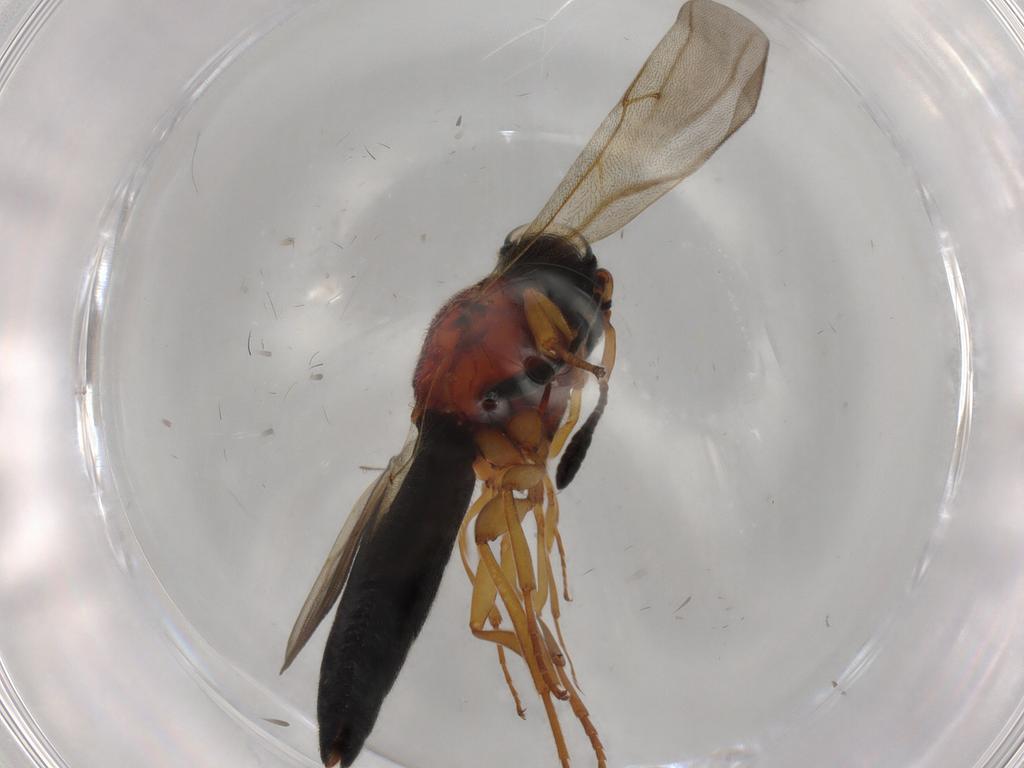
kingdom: Animalia
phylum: Arthropoda
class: Insecta
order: Hymenoptera
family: Formicidae
